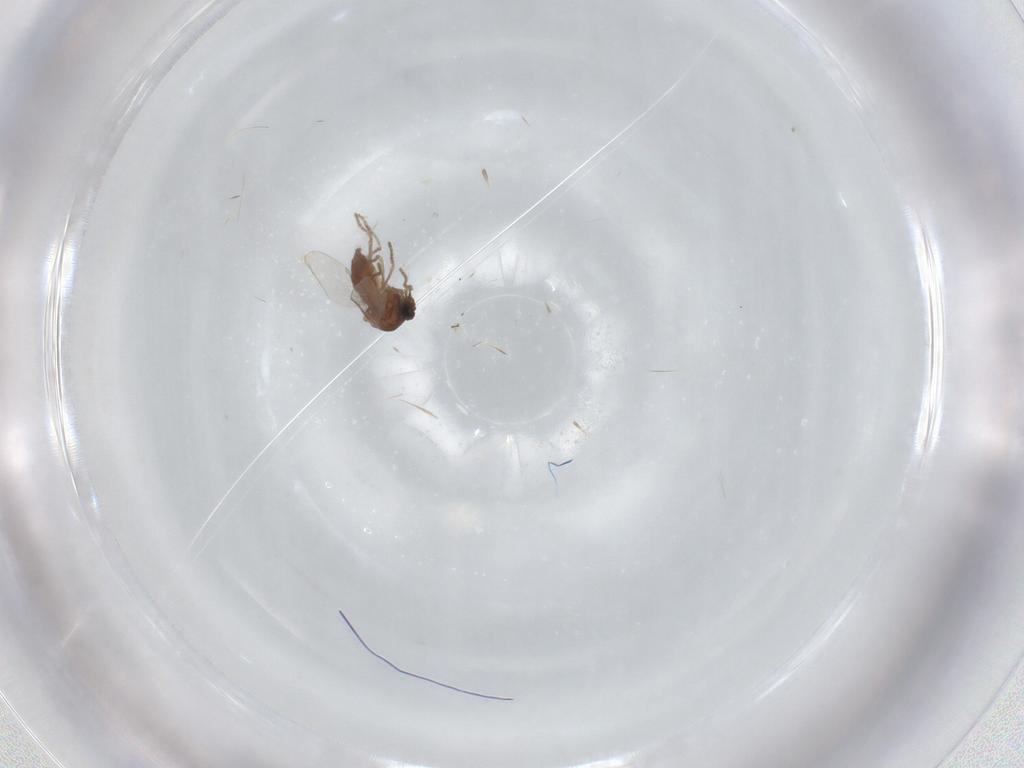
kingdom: Animalia
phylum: Arthropoda
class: Insecta
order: Diptera
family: Ceratopogonidae
